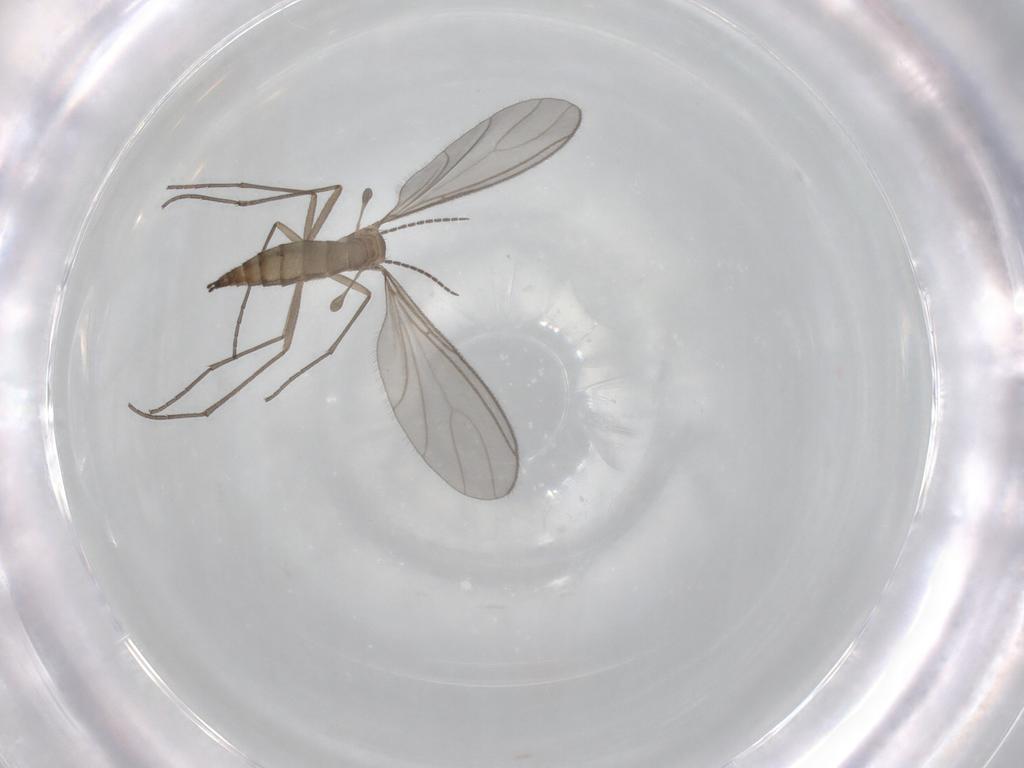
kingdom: Animalia
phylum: Arthropoda
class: Insecta
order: Diptera
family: Sciaridae
